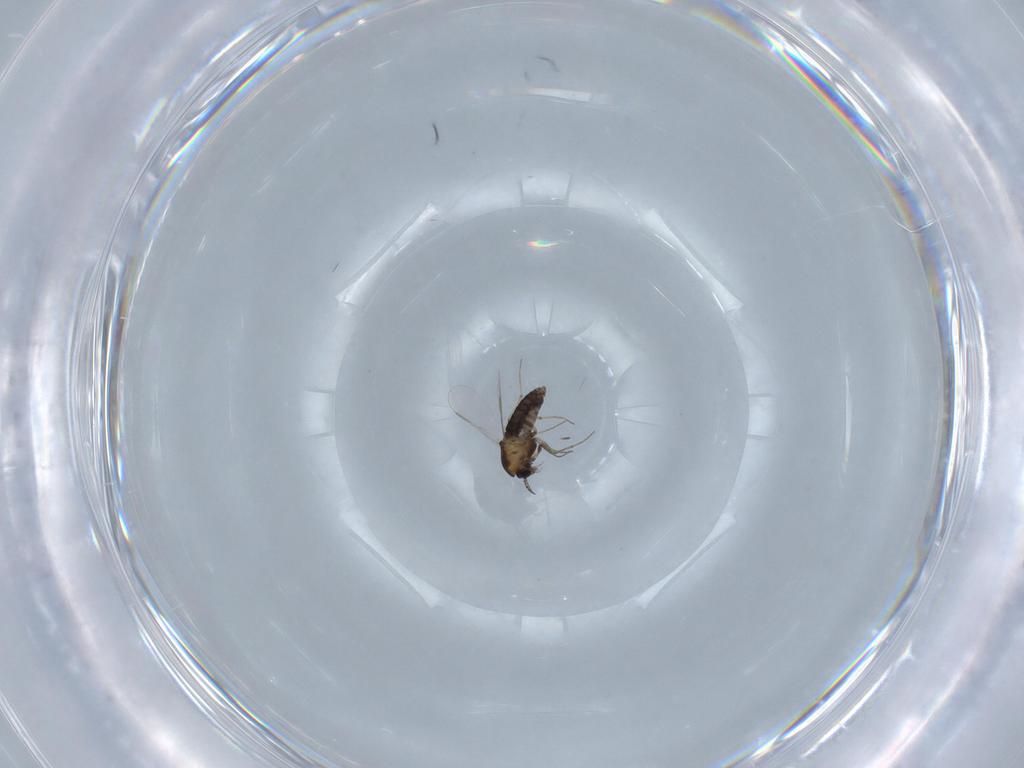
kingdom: Animalia
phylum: Arthropoda
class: Insecta
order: Diptera
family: Chironomidae
